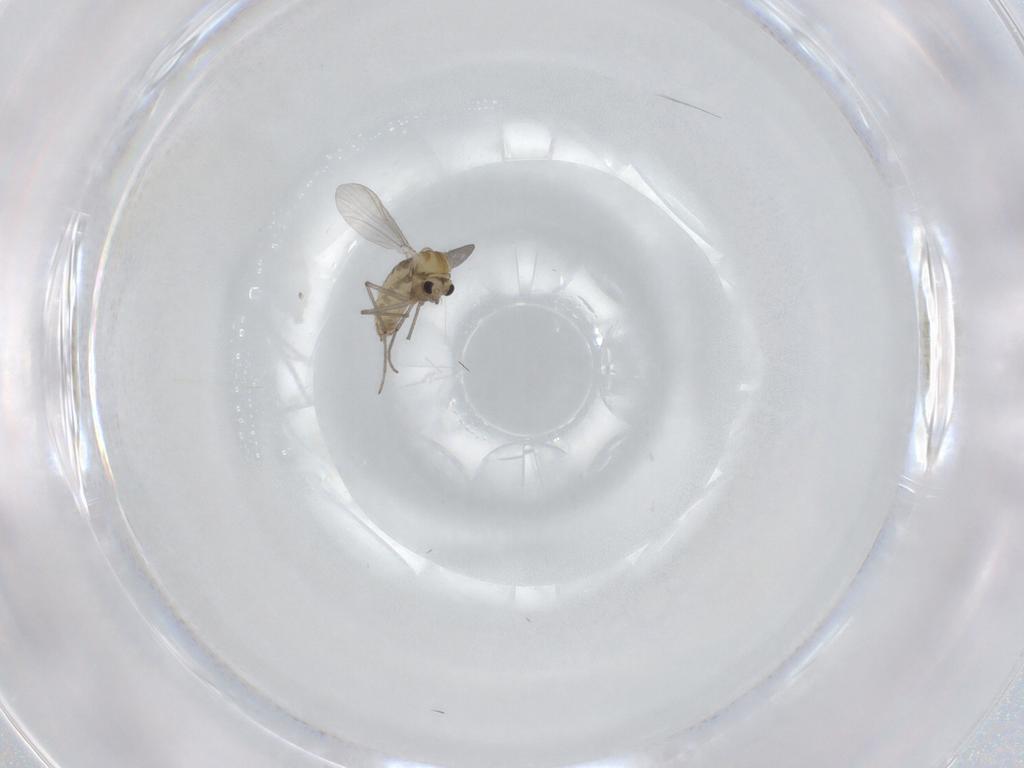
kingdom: Animalia
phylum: Arthropoda
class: Insecta
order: Diptera
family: Chironomidae
